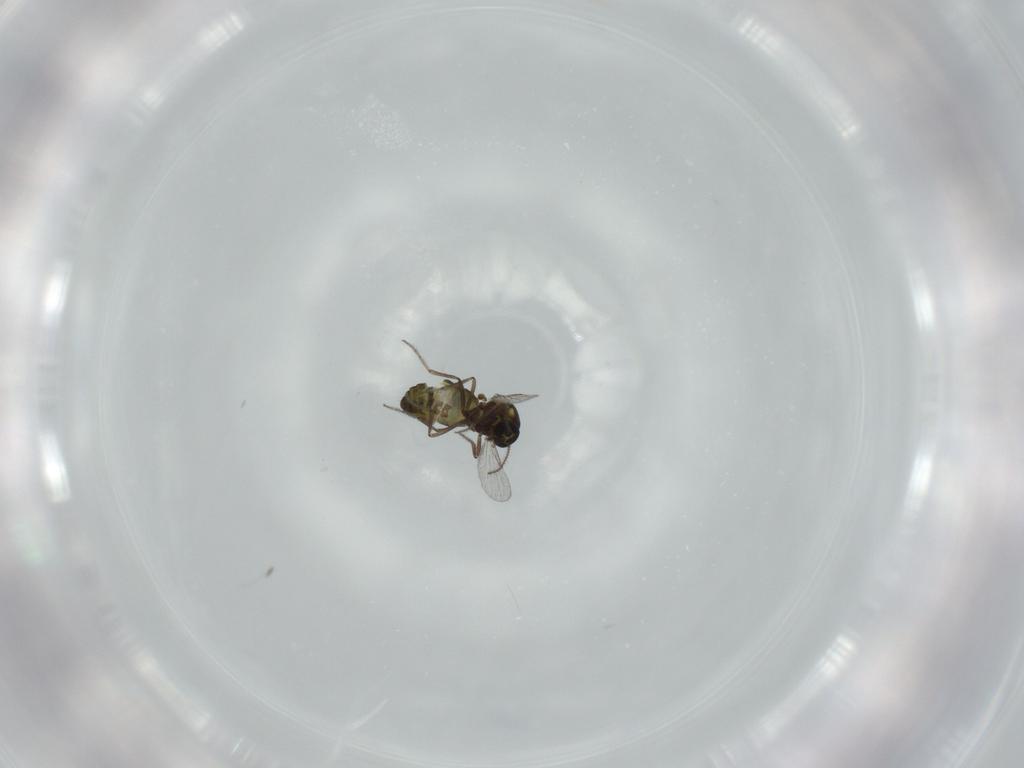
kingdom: Animalia
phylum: Arthropoda
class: Insecta
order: Diptera
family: Ceratopogonidae
